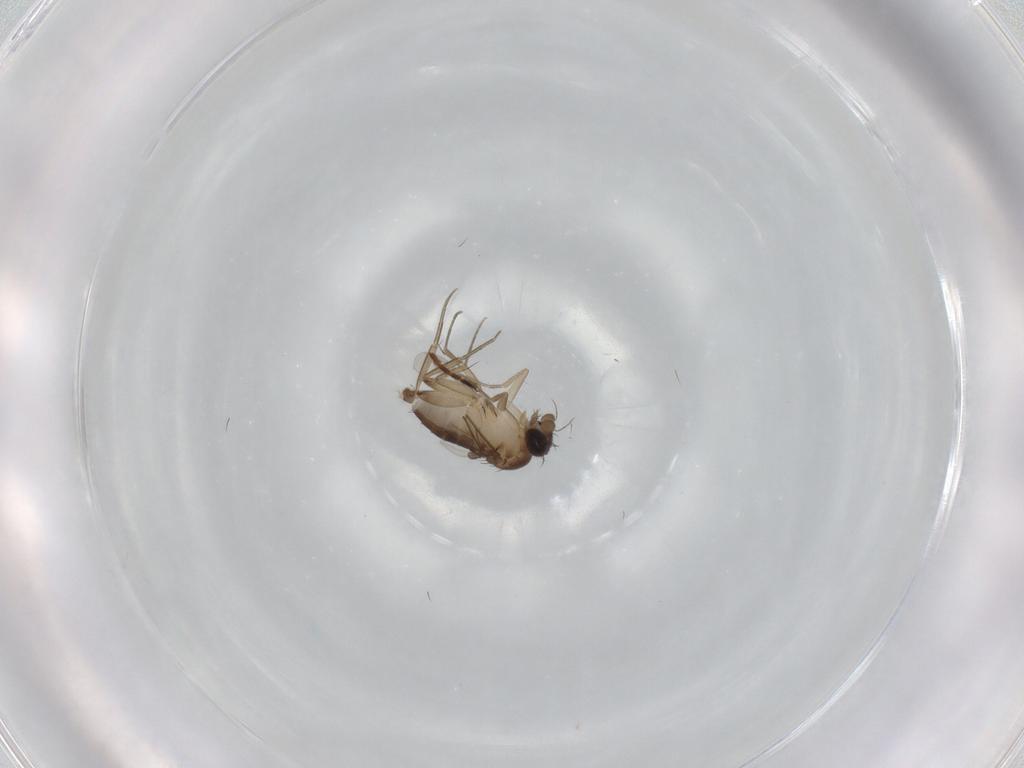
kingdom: Animalia
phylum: Arthropoda
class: Insecta
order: Diptera
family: Phoridae
